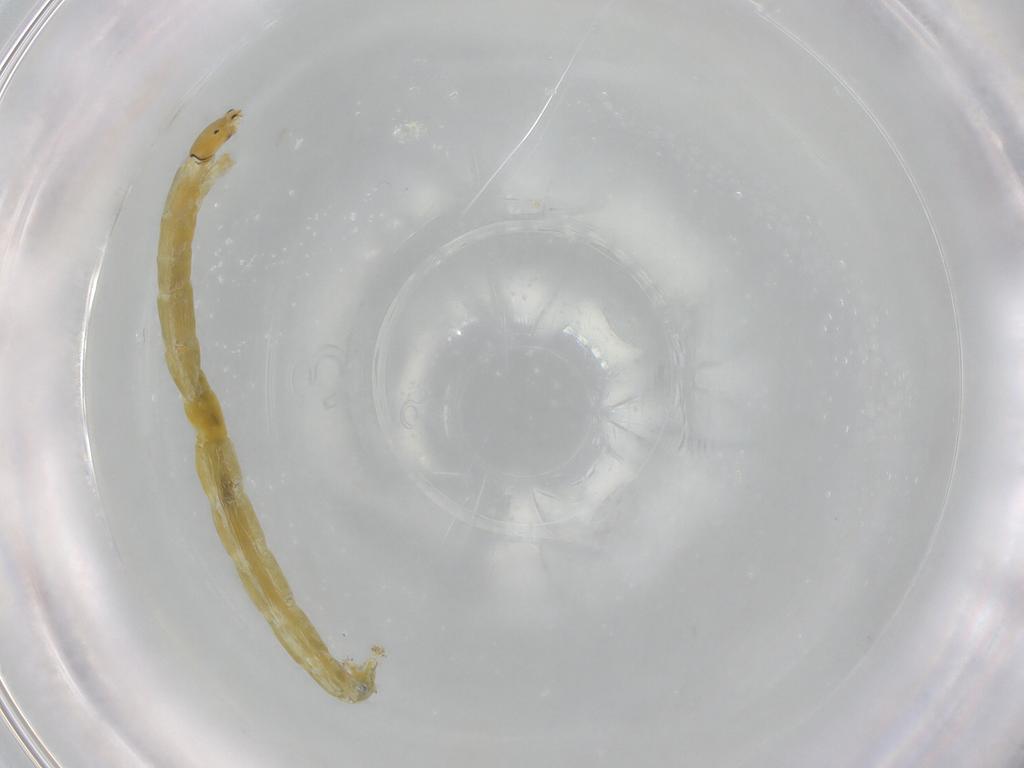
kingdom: Animalia
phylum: Arthropoda
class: Insecta
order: Diptera
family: Chironomidae
